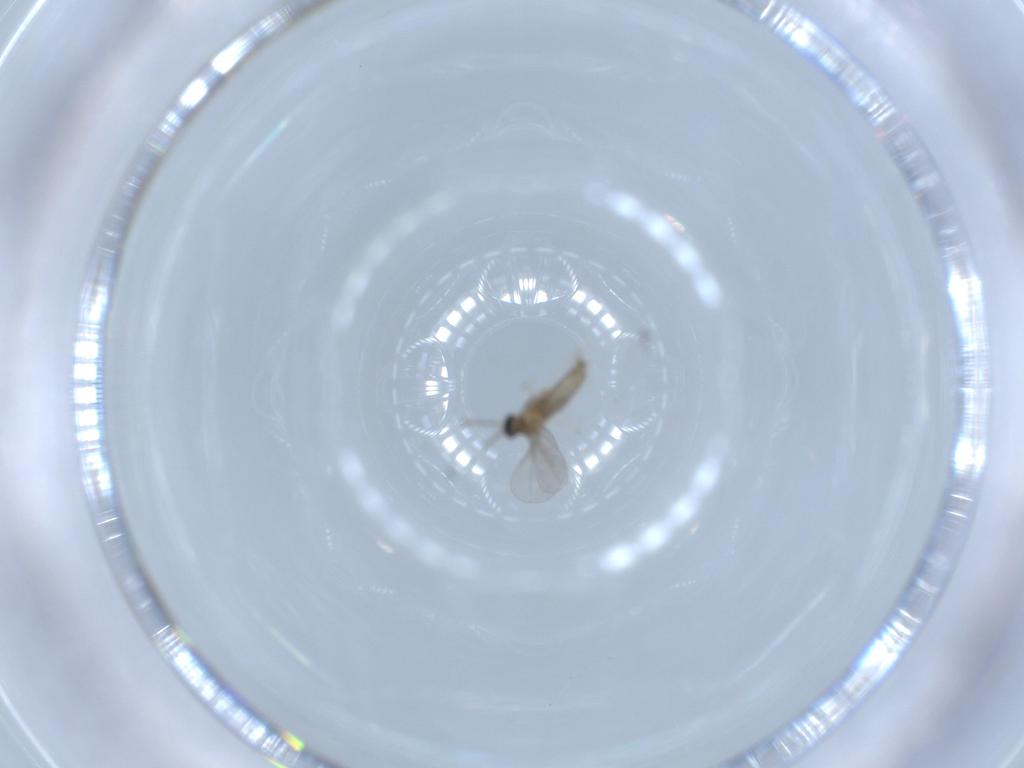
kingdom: Animalia
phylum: Arthropoda
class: Insecta
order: Diptera
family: Cecidomyiidae
